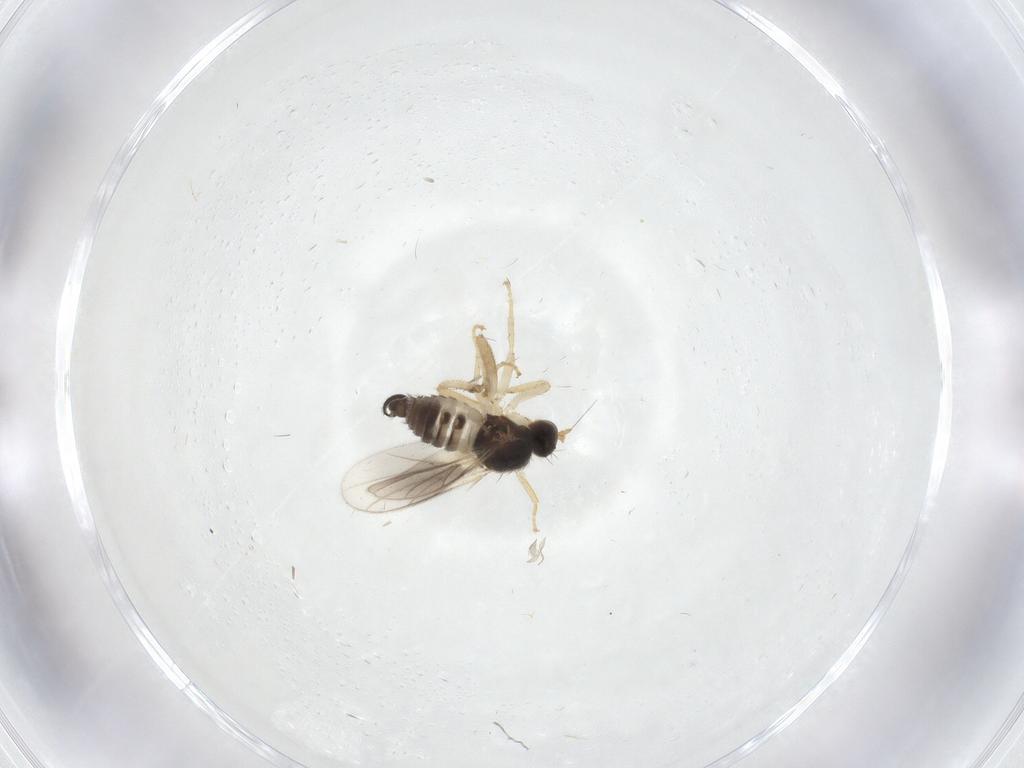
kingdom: Animalia
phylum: Arthropoda
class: Insecta
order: Diptera
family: Hybotidae
